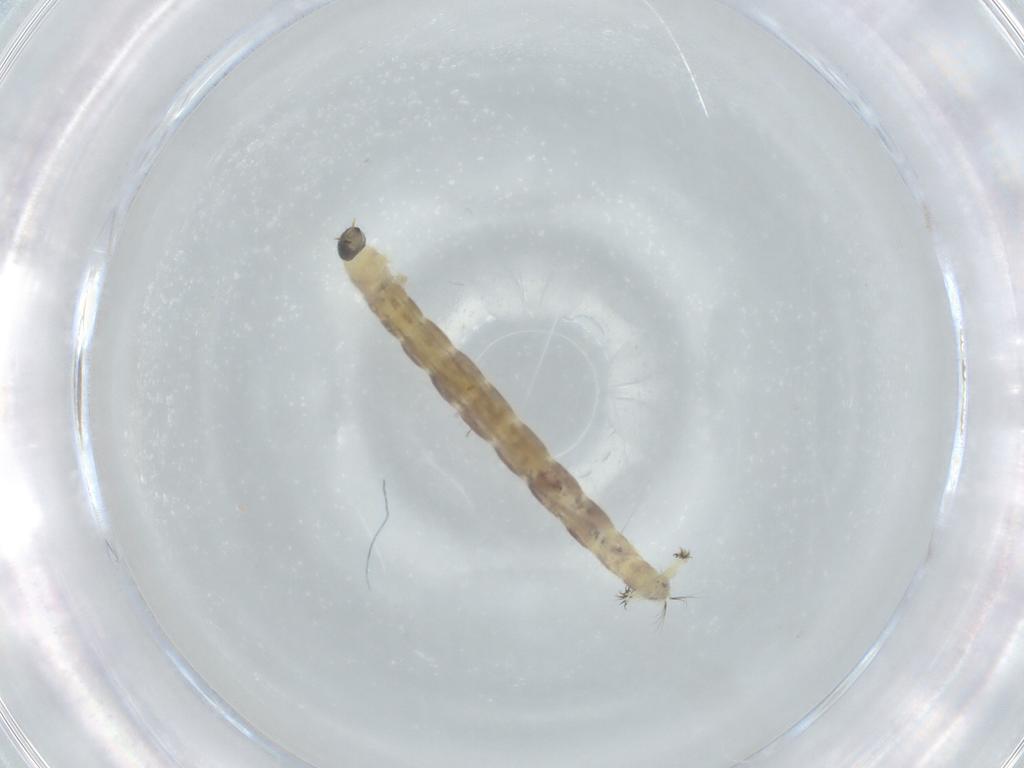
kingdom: Animalia
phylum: Arthropoda
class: Insecta
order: Diptera
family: Chironomidae
